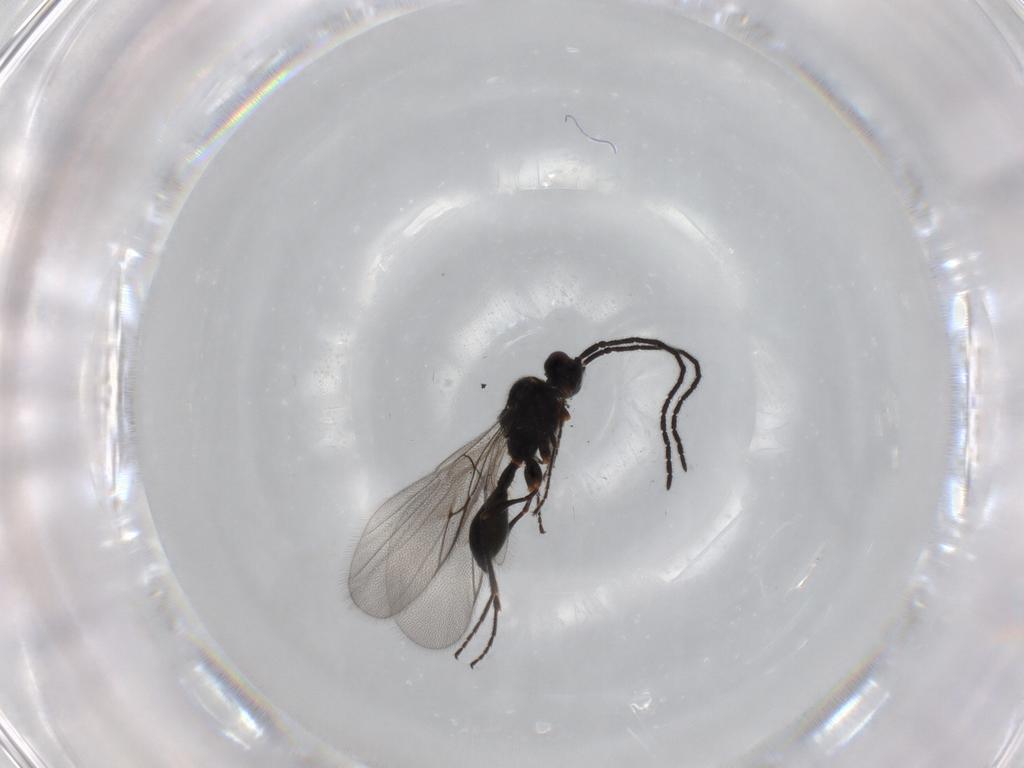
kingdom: Animalia
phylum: Arthropoda
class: Insecta
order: Hymenoptera
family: Diapriidae
